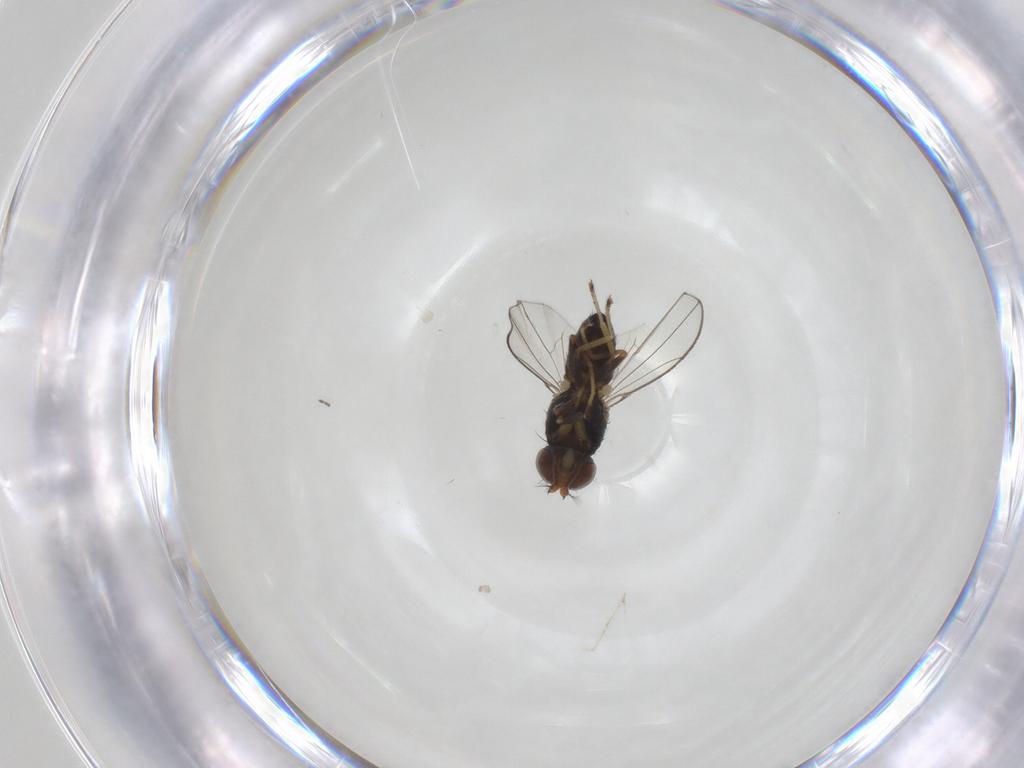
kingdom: Animalia
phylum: Arthropoda
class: Insecta
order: Diptera
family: Ephydridae
